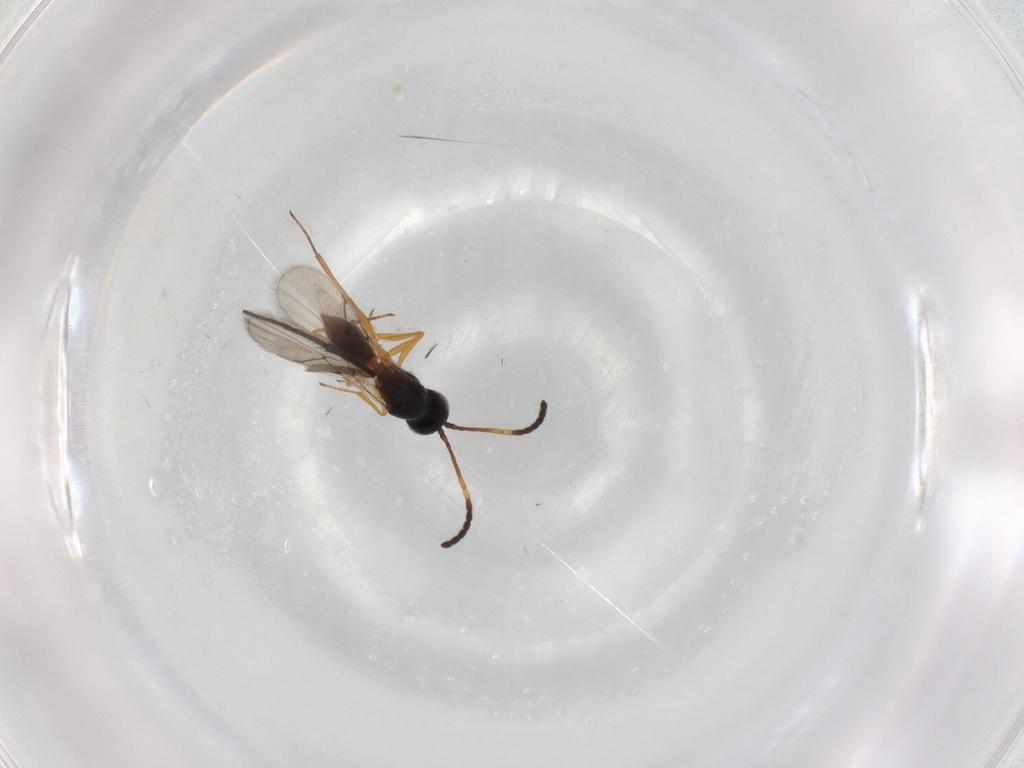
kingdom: Animalia
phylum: Arthropoda
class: Insecta
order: Hymenoptera
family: Figitidae
